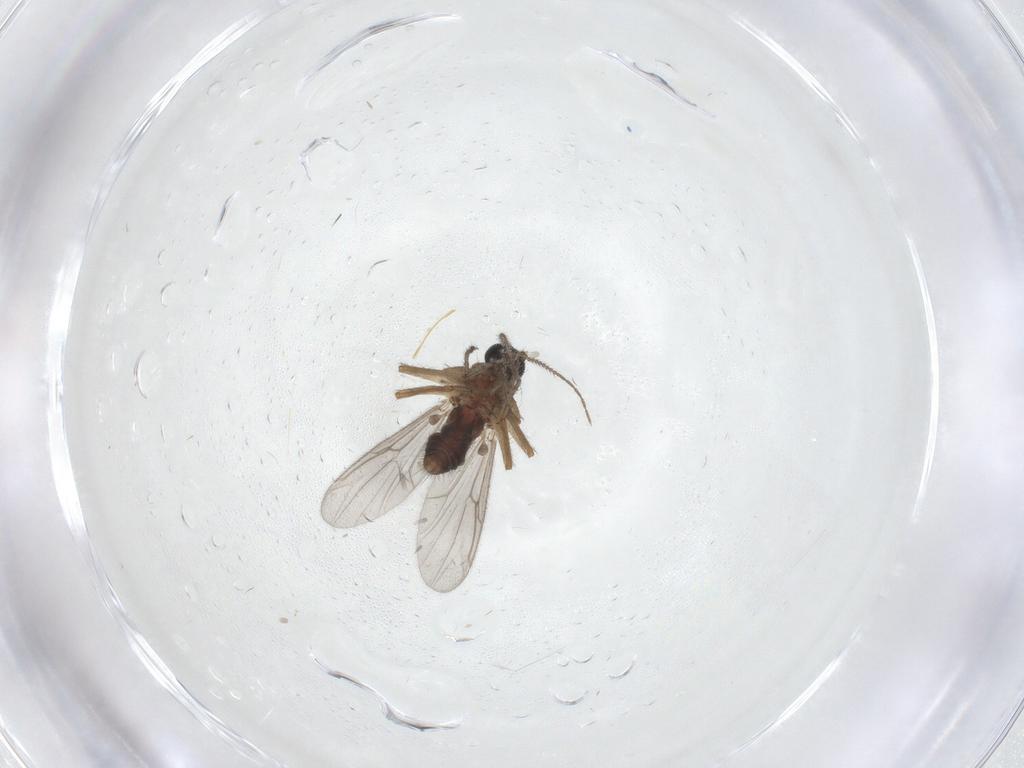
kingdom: Animalia
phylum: Arthropoda
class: Insecta
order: Diptera
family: Ceratopogonidae
